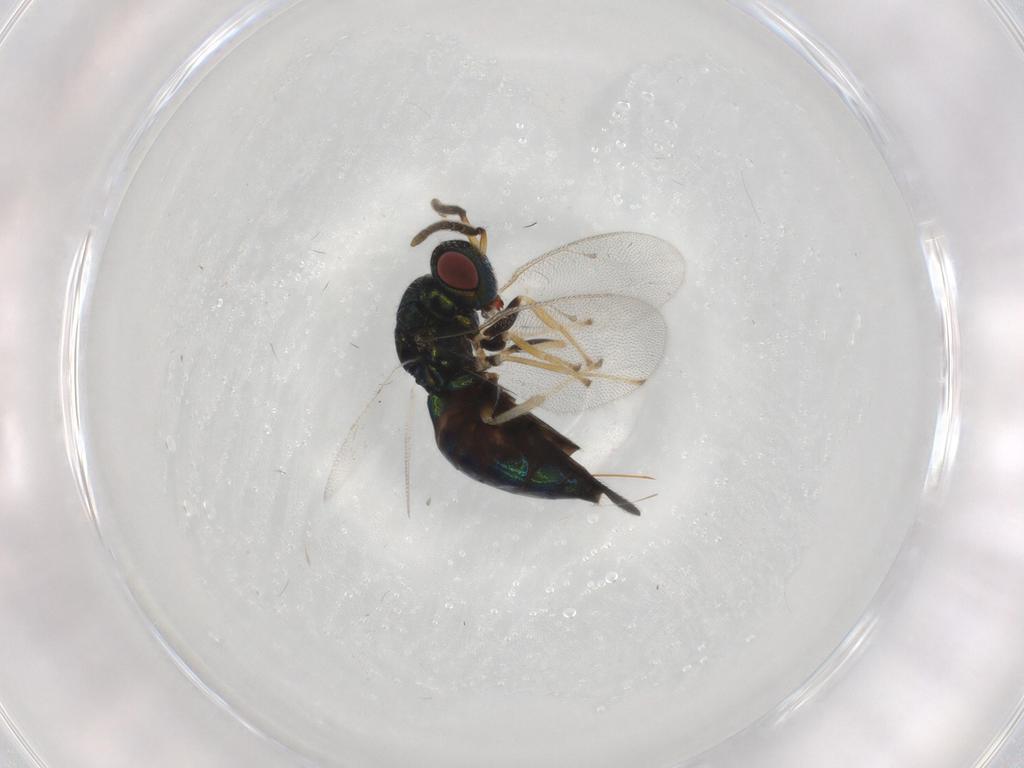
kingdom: Animalia
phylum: Arthropoda
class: Insecta
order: Hymenoptera
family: Pteromalidae
